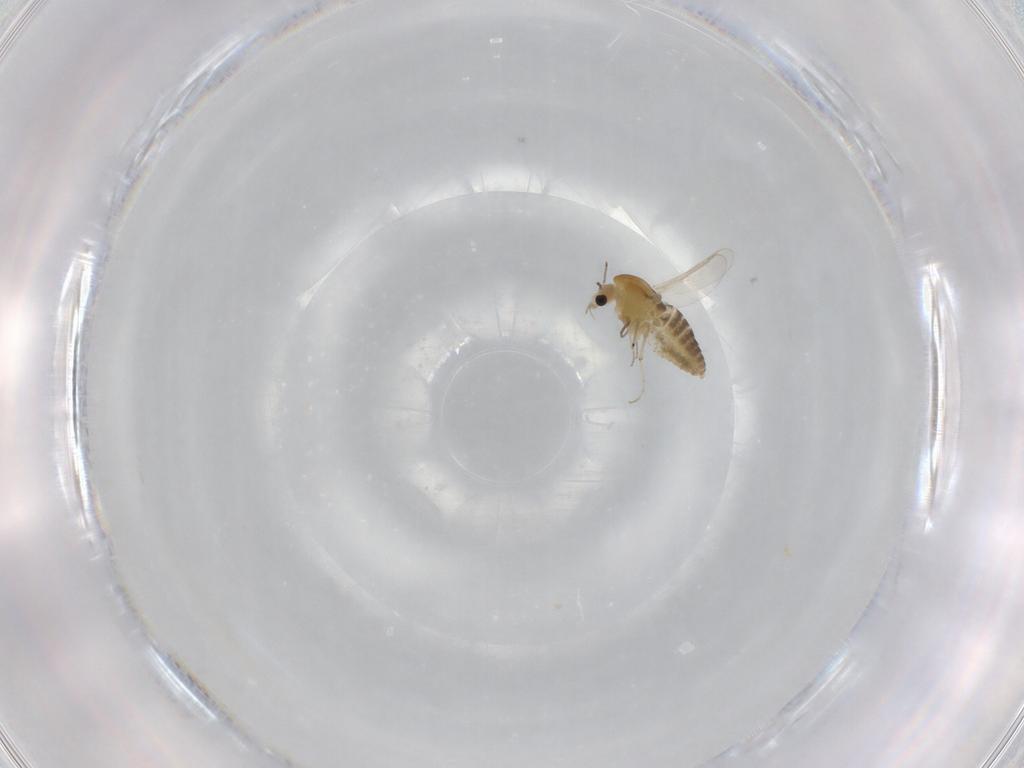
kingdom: Animalia
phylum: Arthropoda
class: Insecta
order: Diptera
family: Chironomidae
